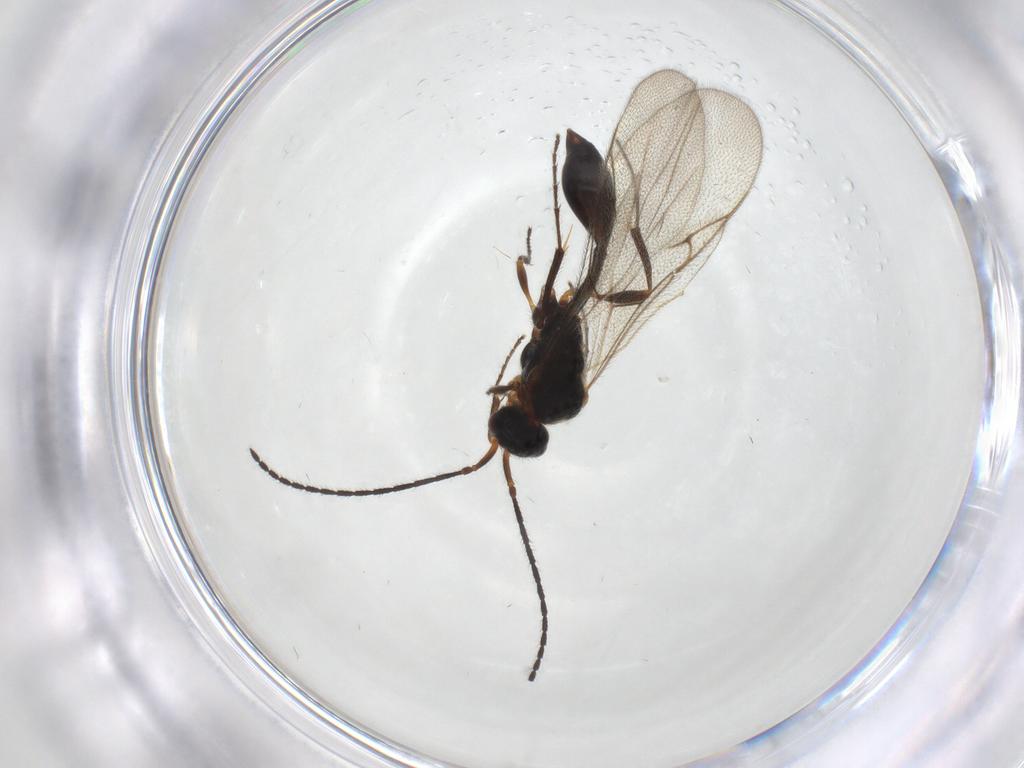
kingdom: Animalia
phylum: Arthropoda
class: Insecta
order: Hymenoptera
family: Diapriidae
